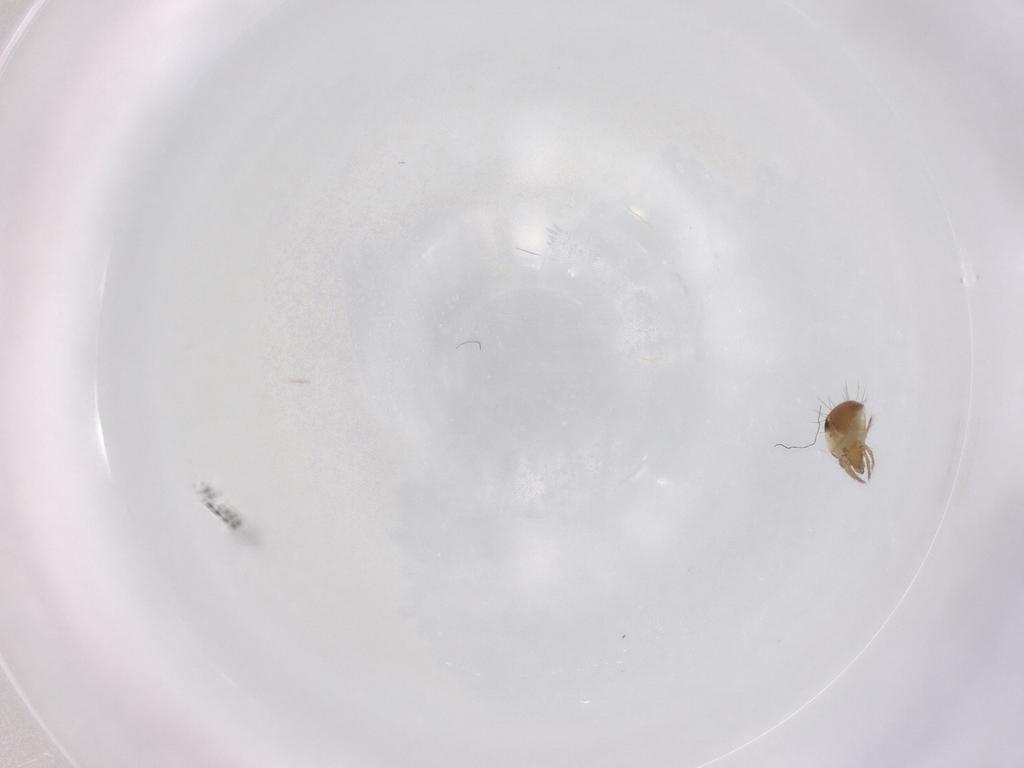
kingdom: Animalia
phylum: Arthropoda
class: Arachnida
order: Sarcoptiformes
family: Humerobatidae
